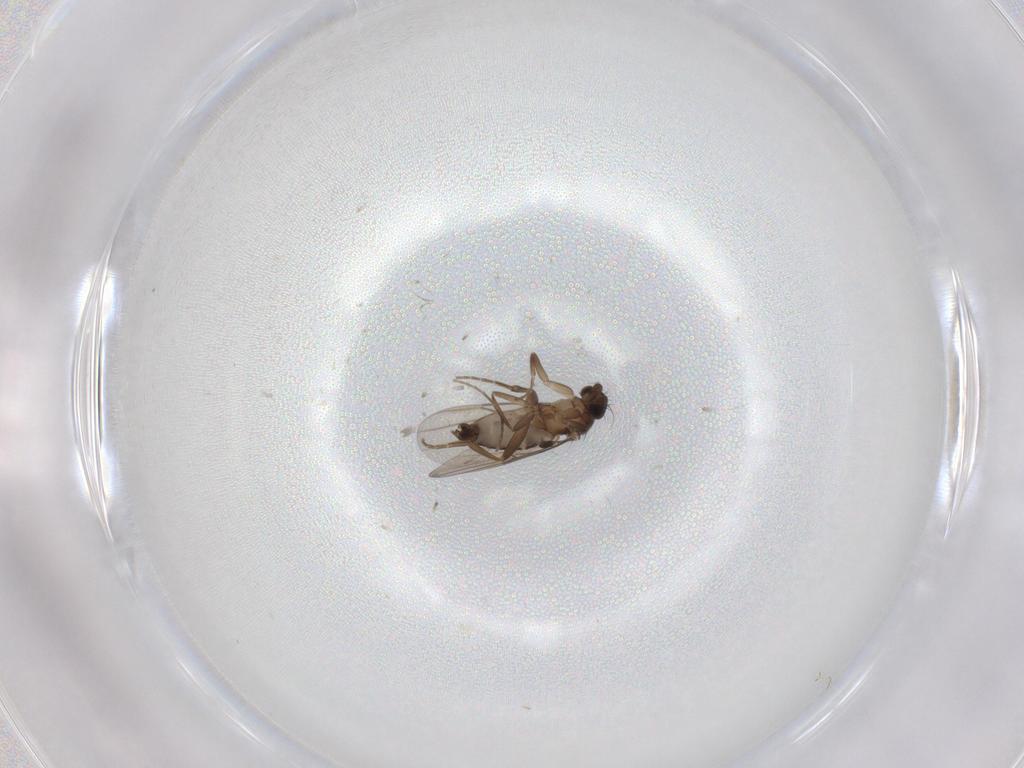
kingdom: Animalia
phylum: Arthropoda
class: Insecta
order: Diptera
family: Phoridae
